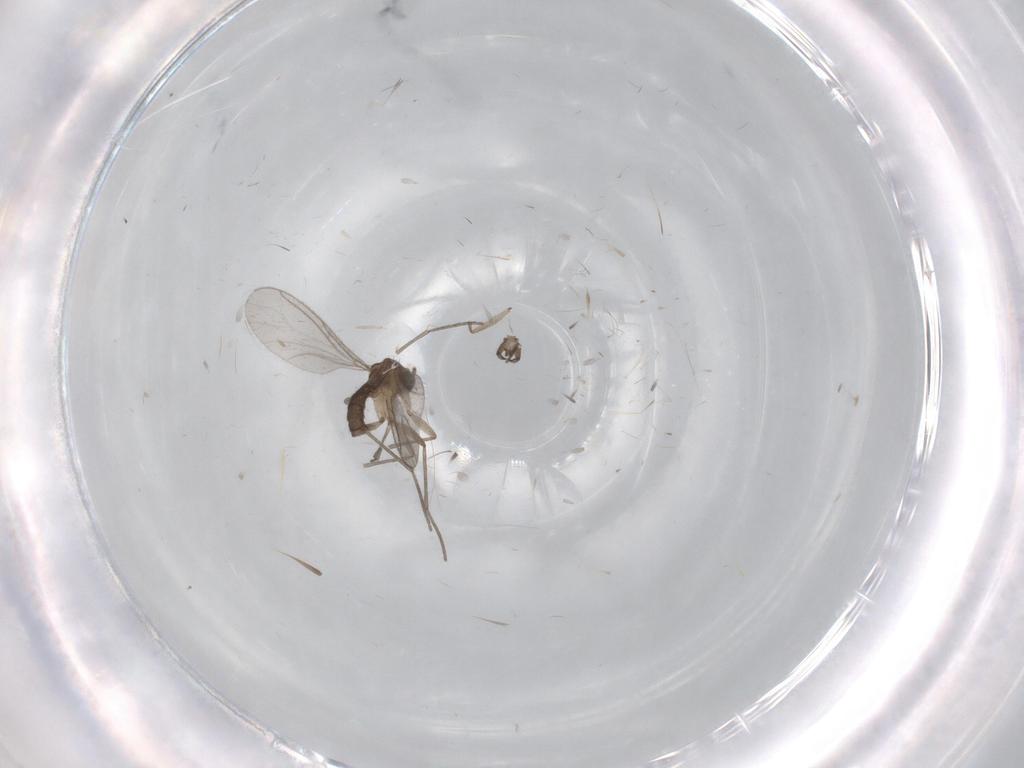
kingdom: Animalia
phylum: Arthropoda
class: Insecta
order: Diptera
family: Sciaridae
